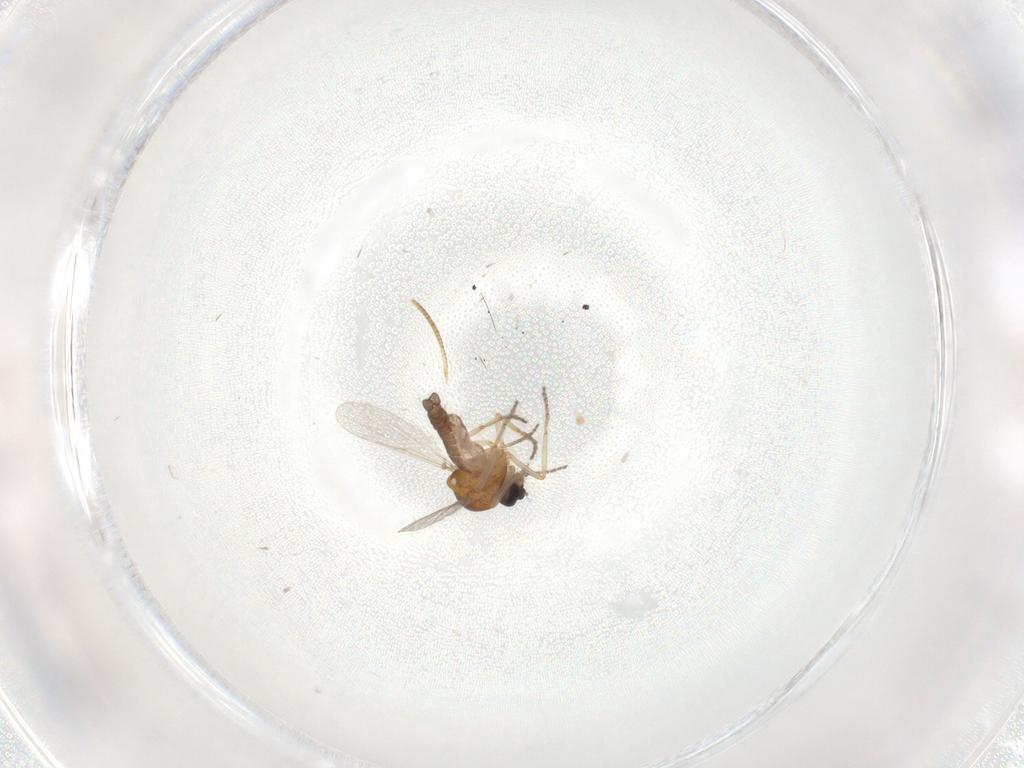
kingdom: Animalia
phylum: Arthropoda
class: Insecta
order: Diptera
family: Ceratopogonidae
